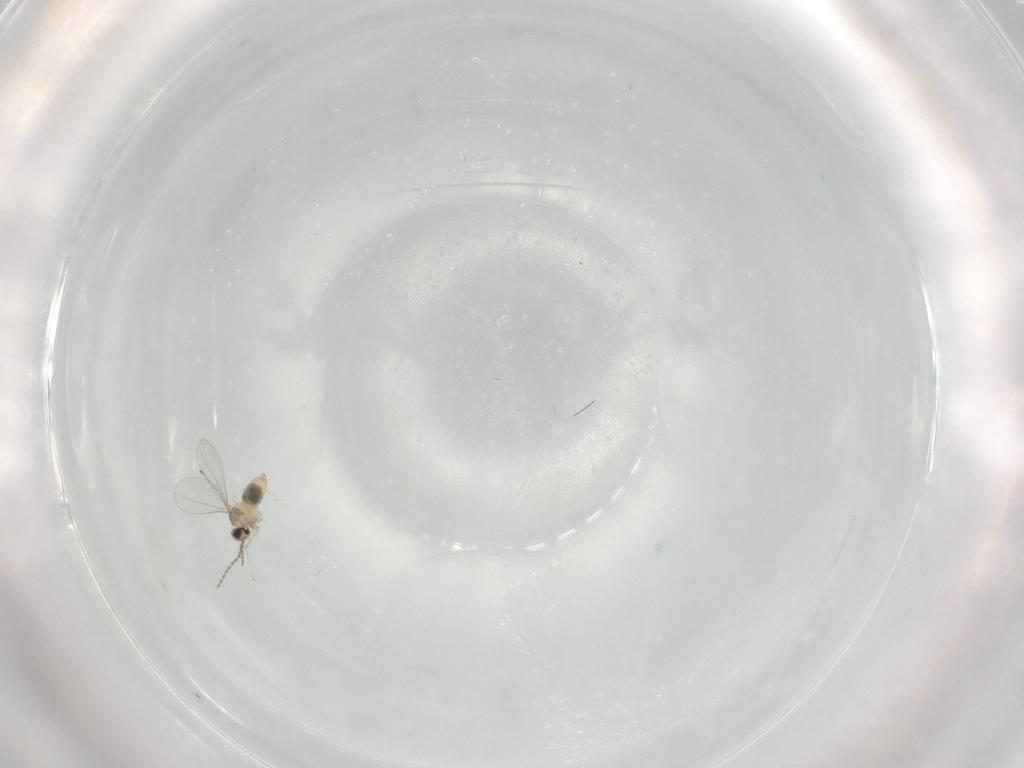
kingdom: Animalia
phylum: Arthropoda
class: Insecta
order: Diptera
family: Cecidomyiidae
